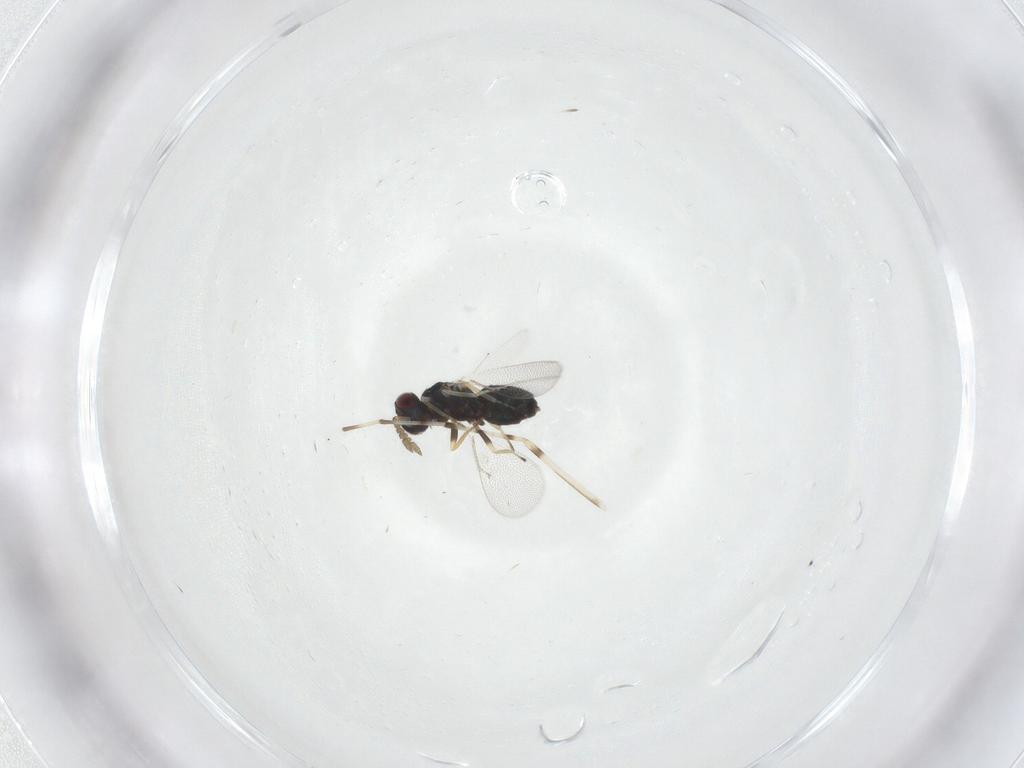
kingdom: Animalia
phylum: Arthropoda
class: Insecta
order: Hymenoptera
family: Eulophidae
